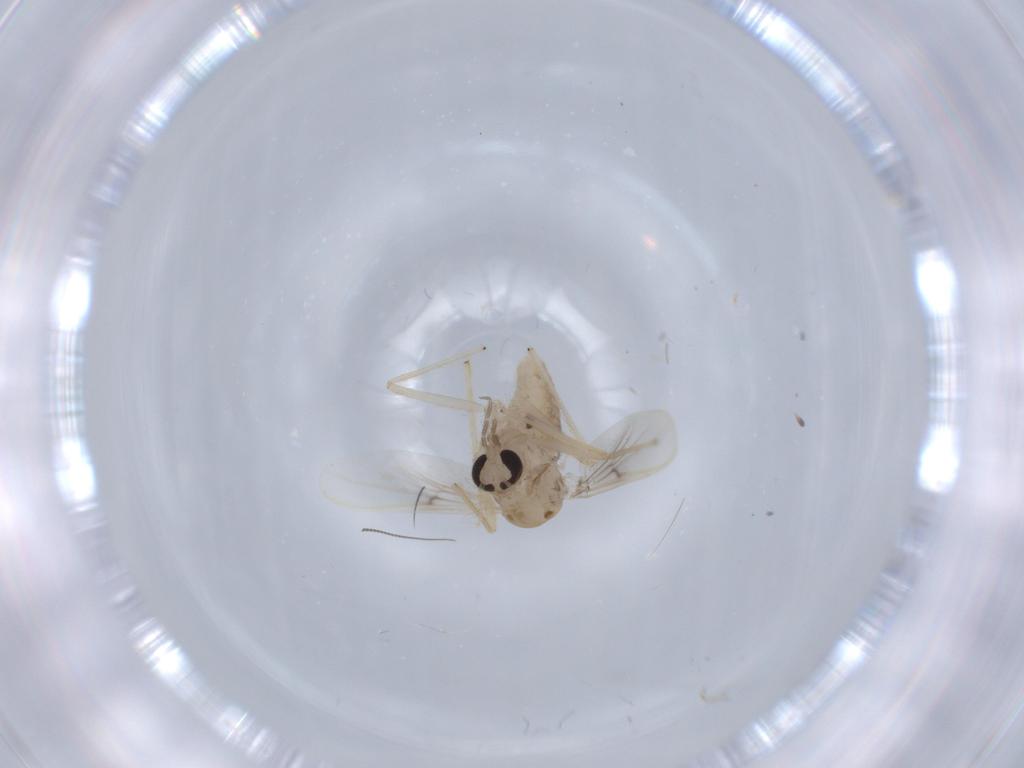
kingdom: Animalia
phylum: Arthropoda
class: Insecta
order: Diptera
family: Chironomidae
